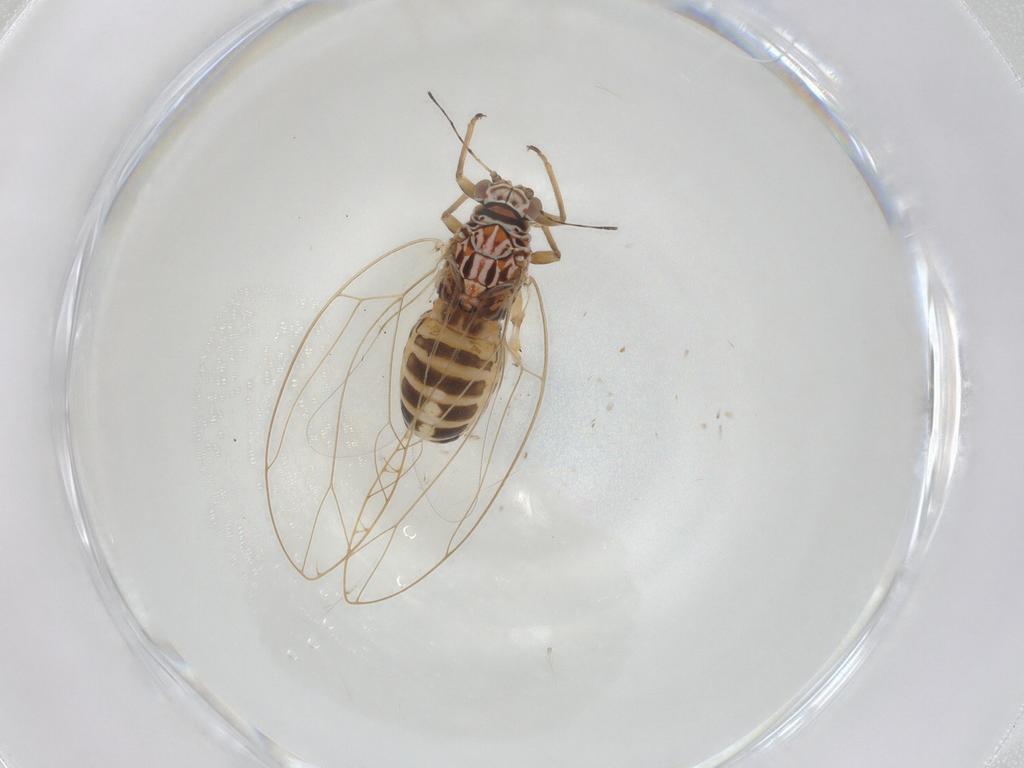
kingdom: Animalia
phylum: Arthropoda
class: Insecta
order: Hemiptera
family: Triozidae
